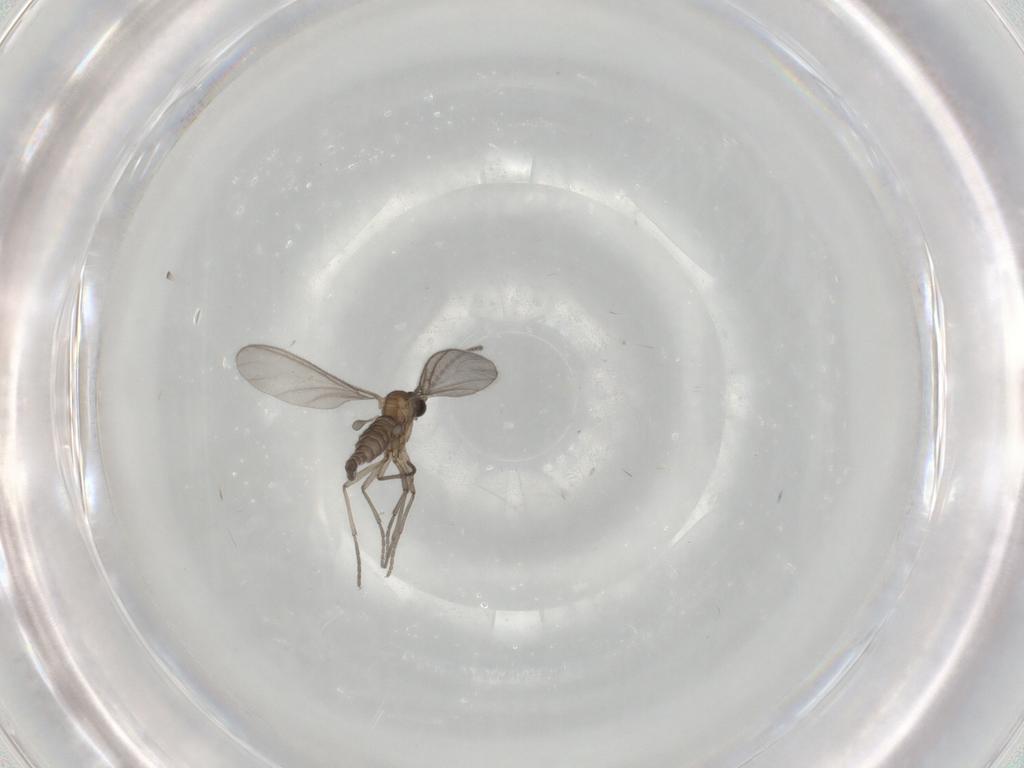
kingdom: Animalia
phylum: Arthropoda
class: Insecta
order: Diptera
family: Sciaridae
